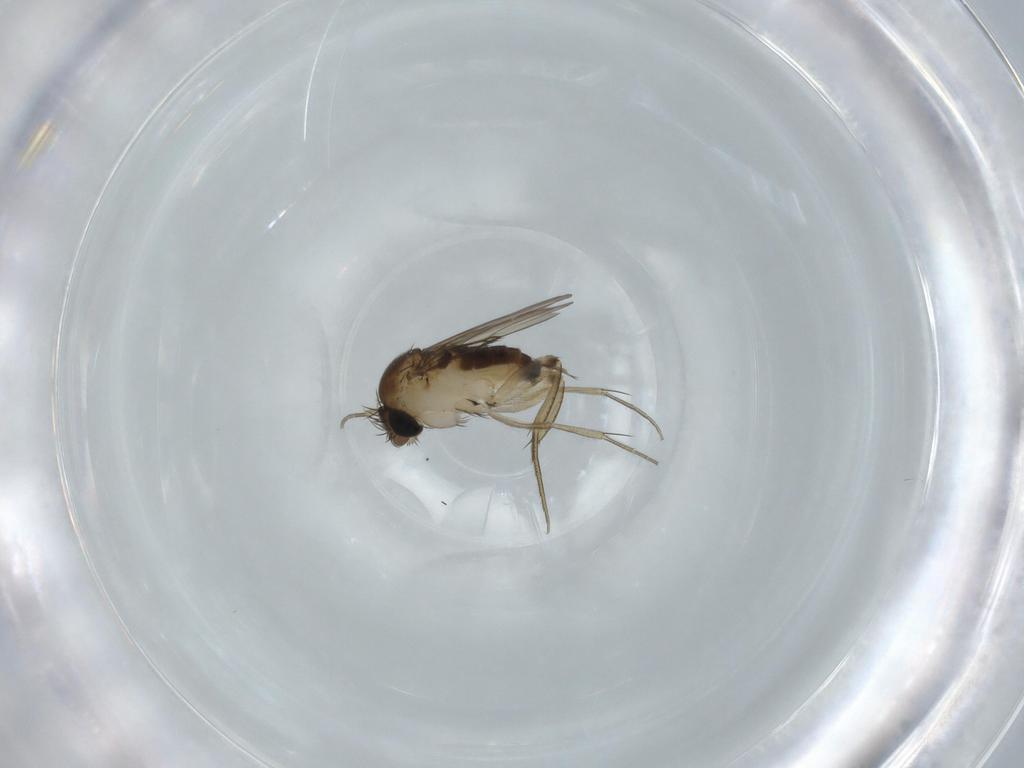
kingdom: Animalia
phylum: Arthropoda
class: Insecta
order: Diptera
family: Phoridae
